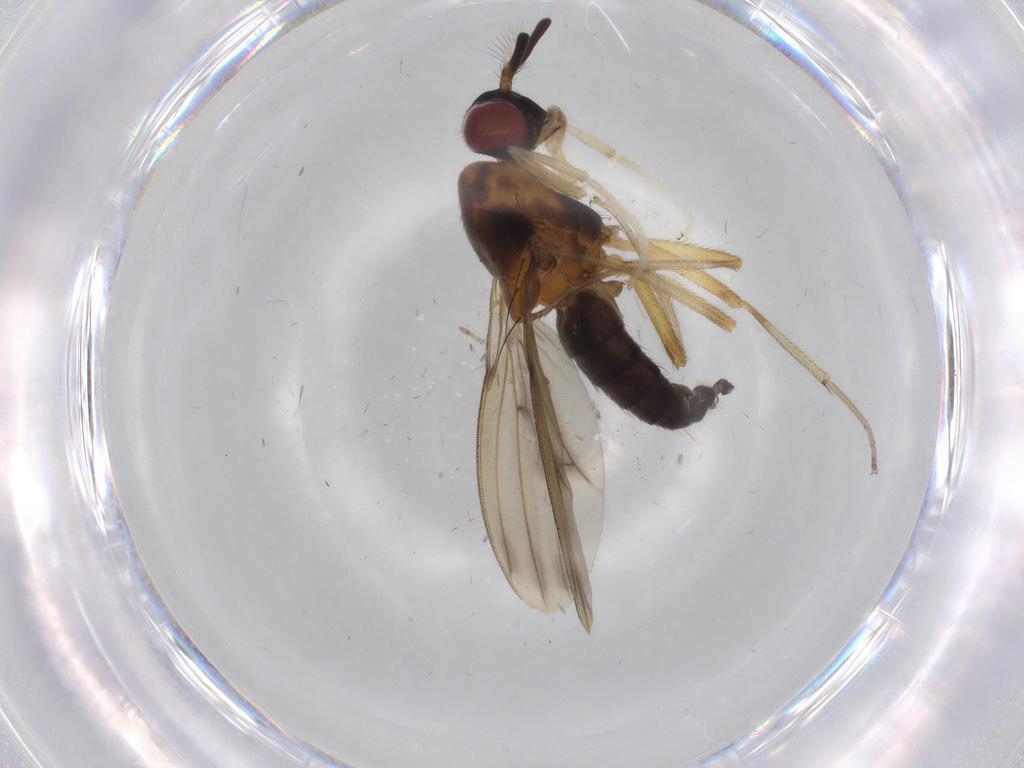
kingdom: Animalia
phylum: Arthropoda
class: Insecta
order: Diptera
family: Lauxaniidae
